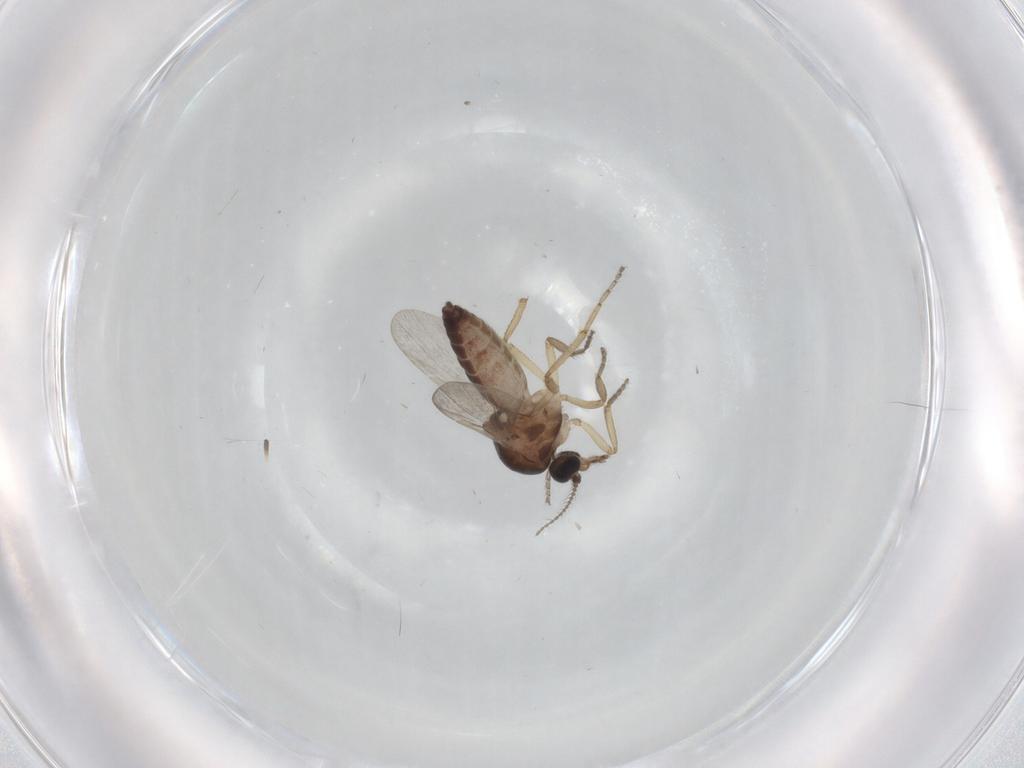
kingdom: Animalia
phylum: Arthropoda
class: Insecta
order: Diptera
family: Ceratopogonidae
